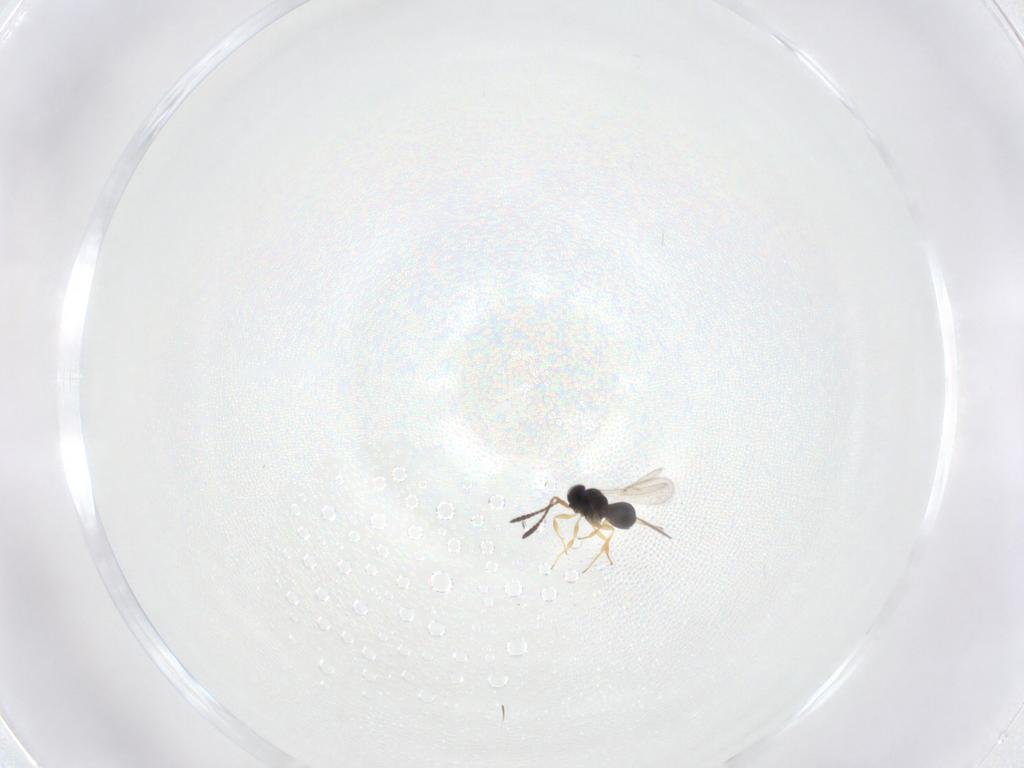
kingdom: Animalia
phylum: Arthropoda
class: Insecta
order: Hymenoptera
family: Scelionidae
